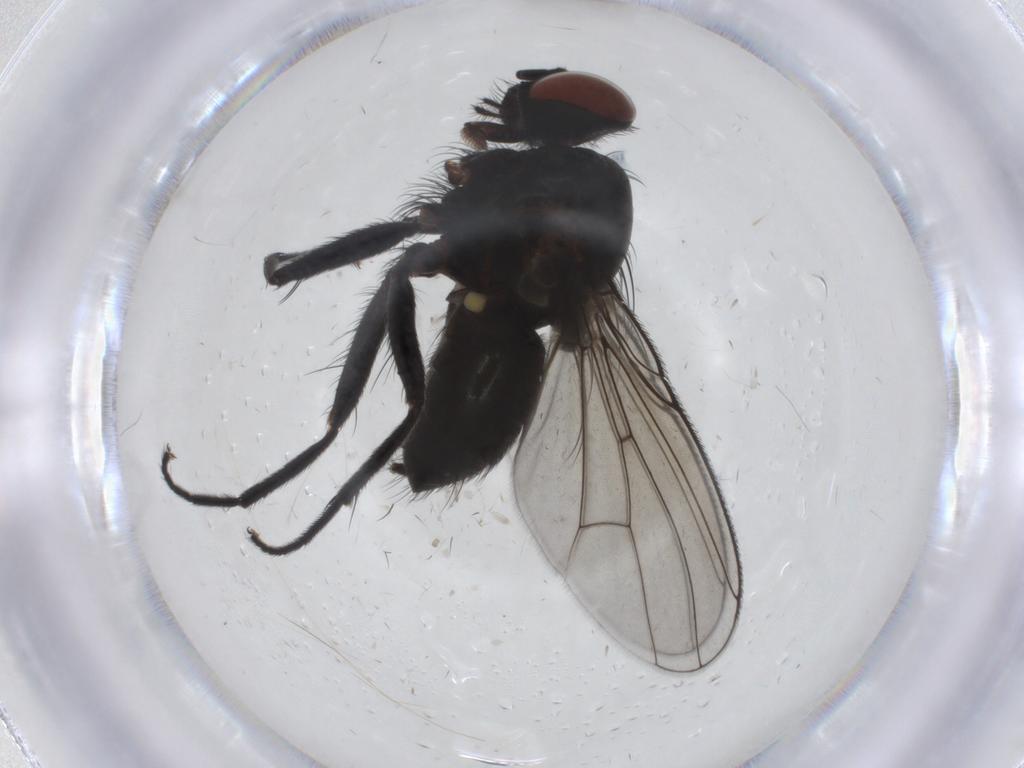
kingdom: Animalia
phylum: Arthropoda
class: Insecta
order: Diptera
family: Muscidae
